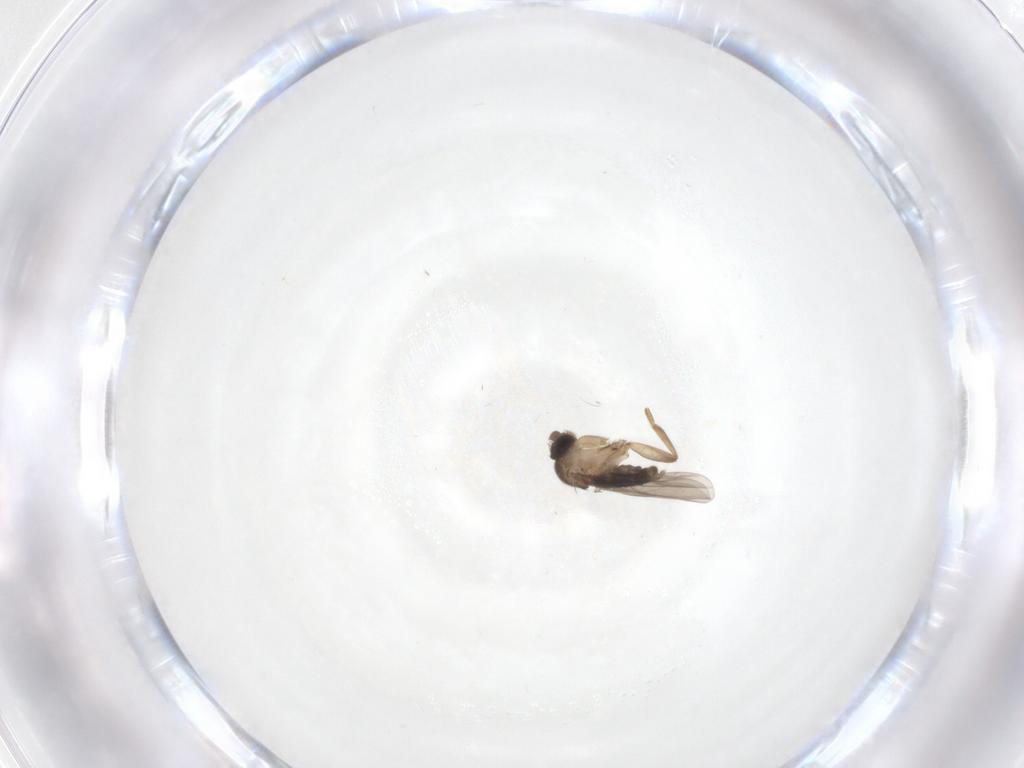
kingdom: Animalia
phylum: Arthropoda
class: Insecta
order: Diptera
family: Phoridae
